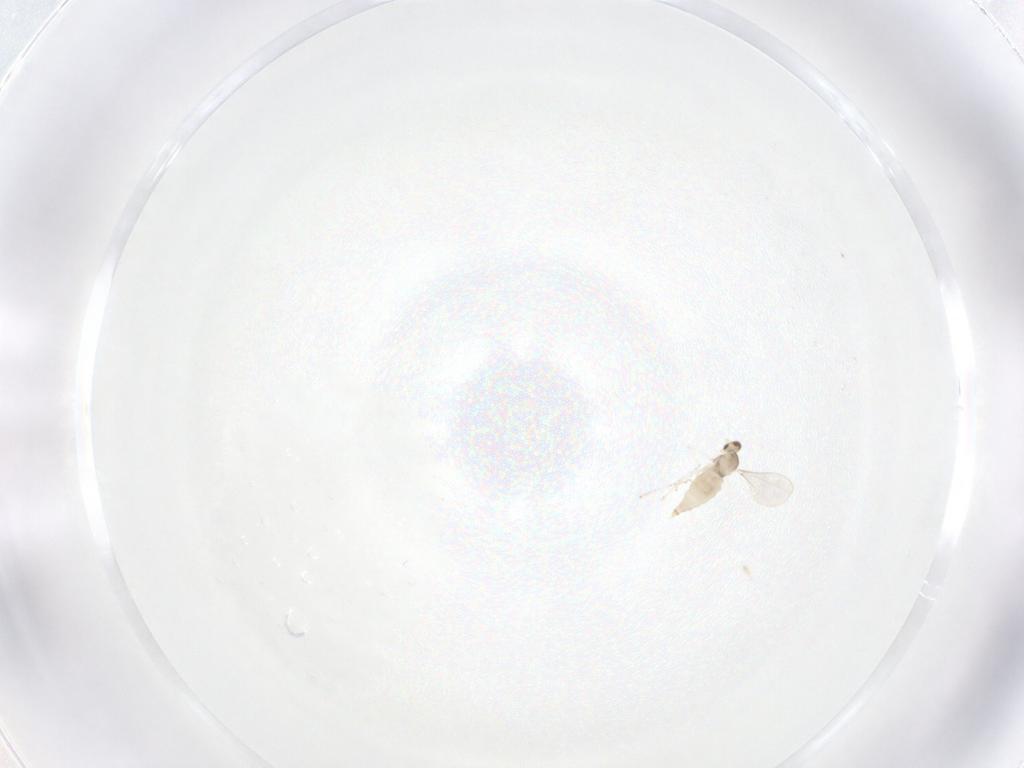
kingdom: Animalia
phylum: Arthropoda
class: Insecta
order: Diptera
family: Cecidomyiidae
